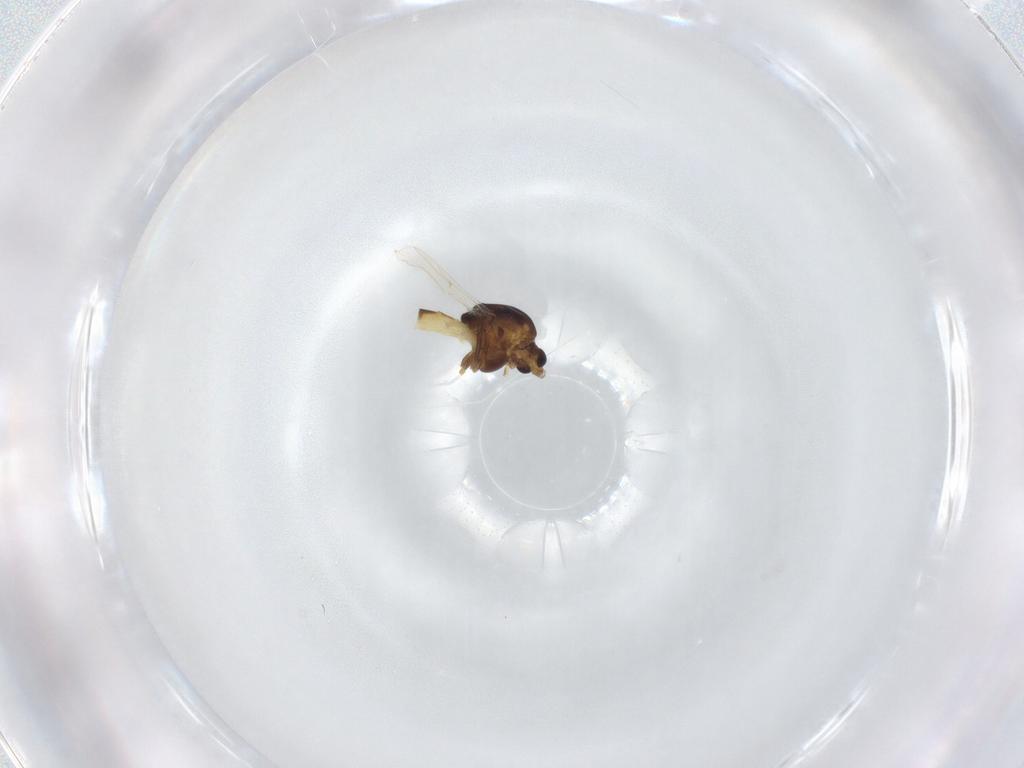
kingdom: Animalia
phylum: Arthropoda
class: Insecta
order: Diptera
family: Chironomidae
